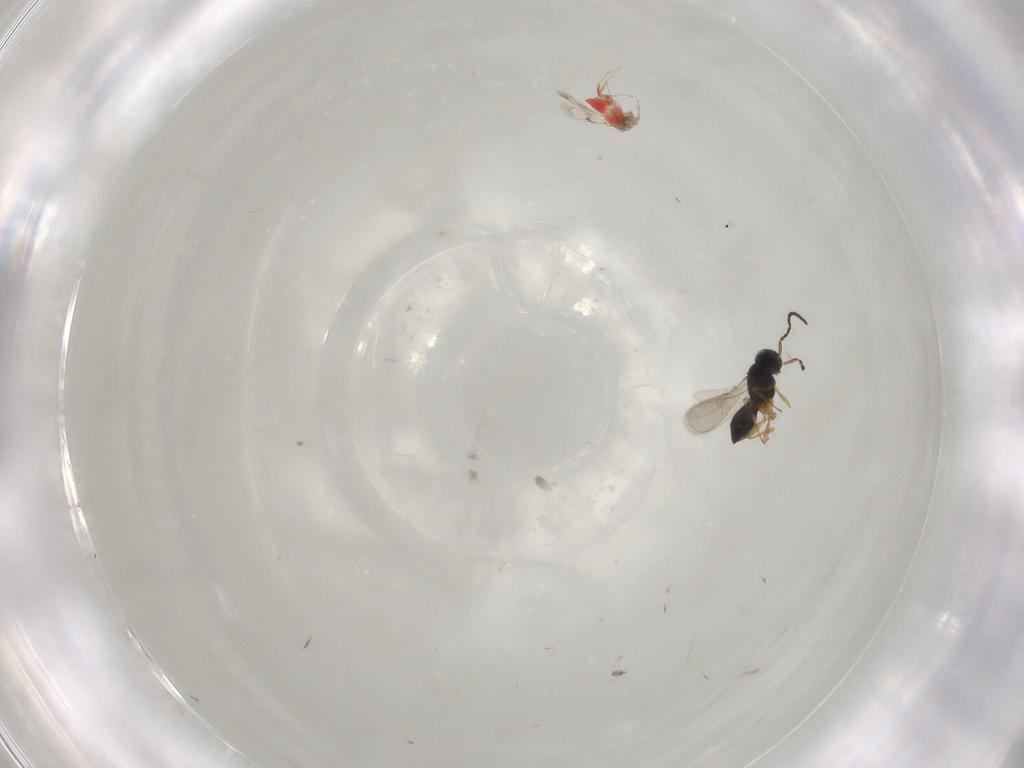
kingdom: Animalia
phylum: Arthropoda
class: Insecta
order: Hymenoptera
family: Scelionidae
